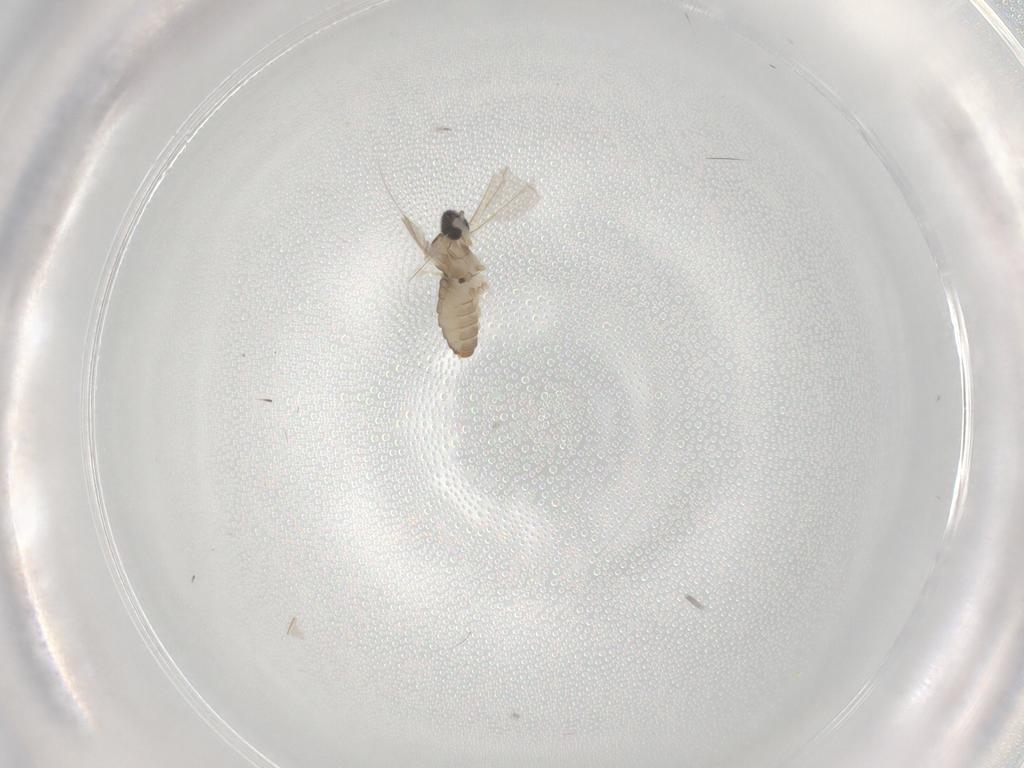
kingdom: Animalia
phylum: Arthropoda
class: Insecta
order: Diptera
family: Cecidomyiidae
